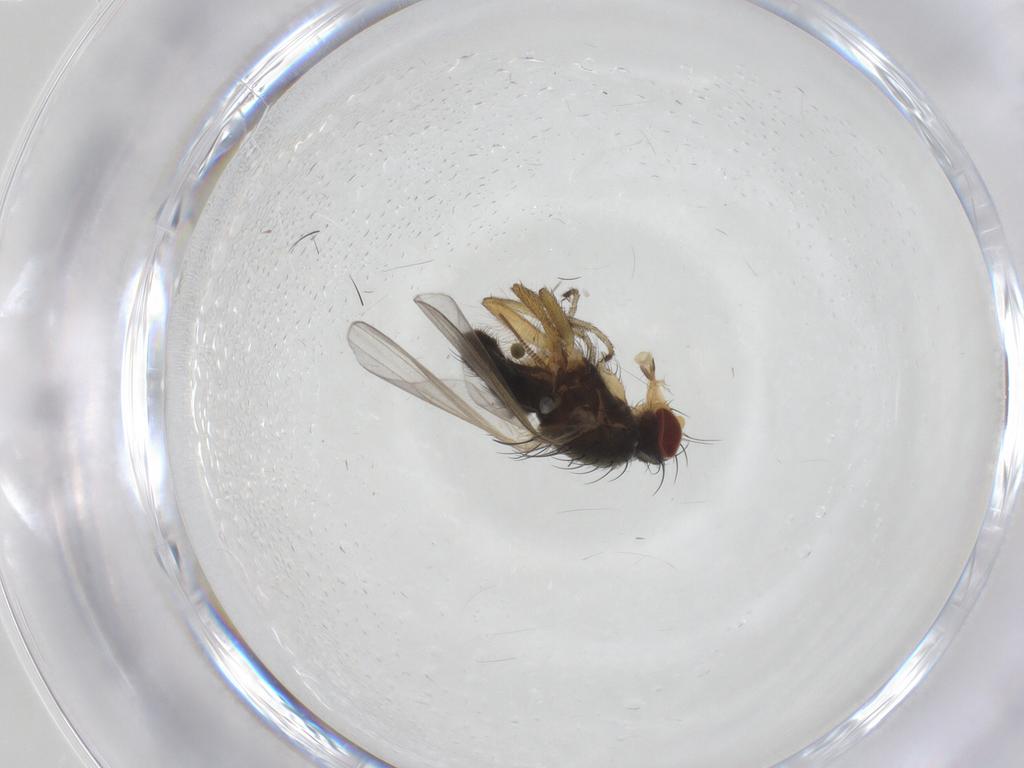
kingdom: Animalia
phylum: Arthropoda
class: Insecta
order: Diptera
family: Heleomyzidae
